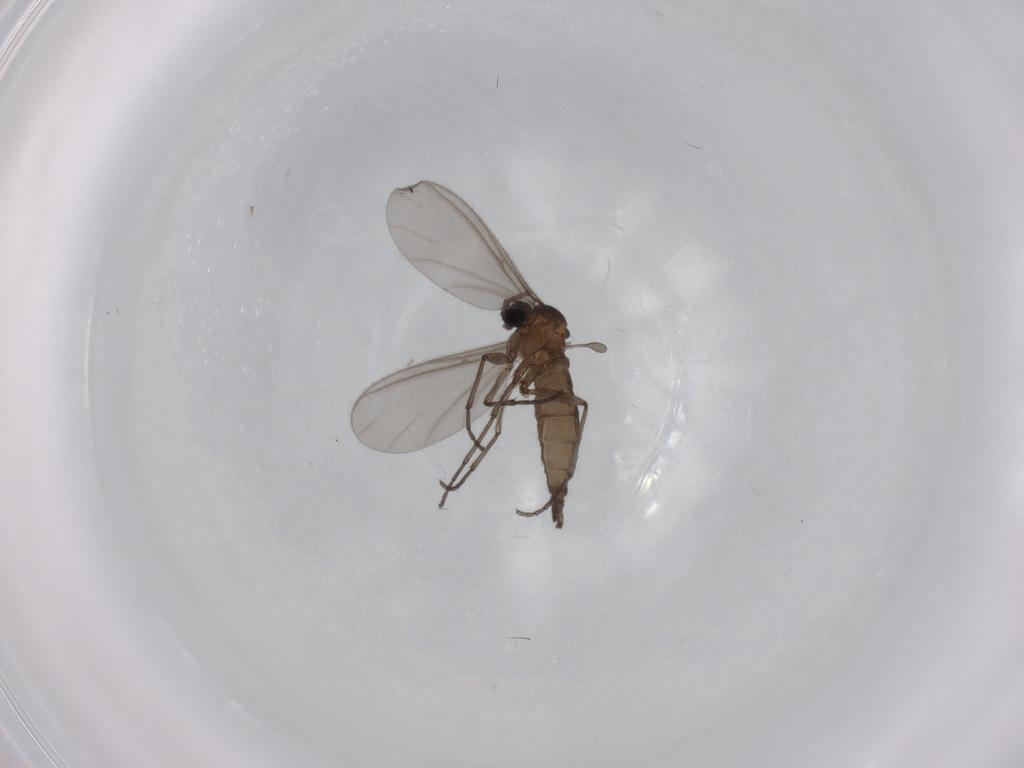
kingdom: Animalia
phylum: Arthropoda
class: Insecta
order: Diptera
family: Sciaridae
